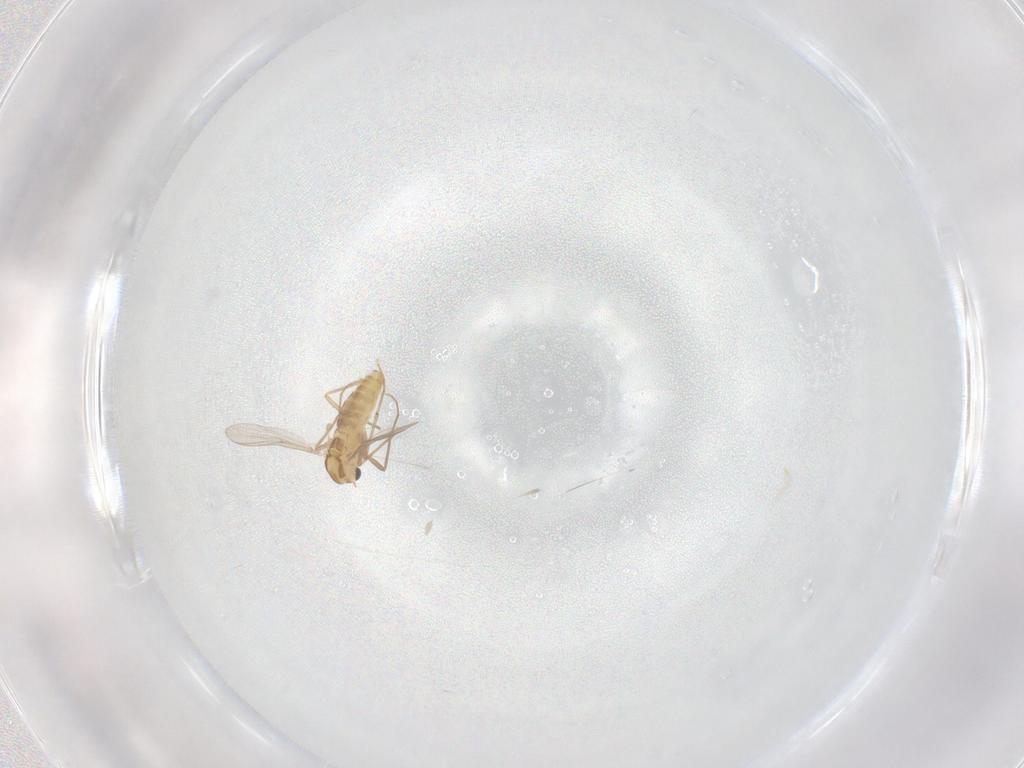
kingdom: Animalia
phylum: Arthropoda
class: Insecta
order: Diptera
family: Chironomidae
